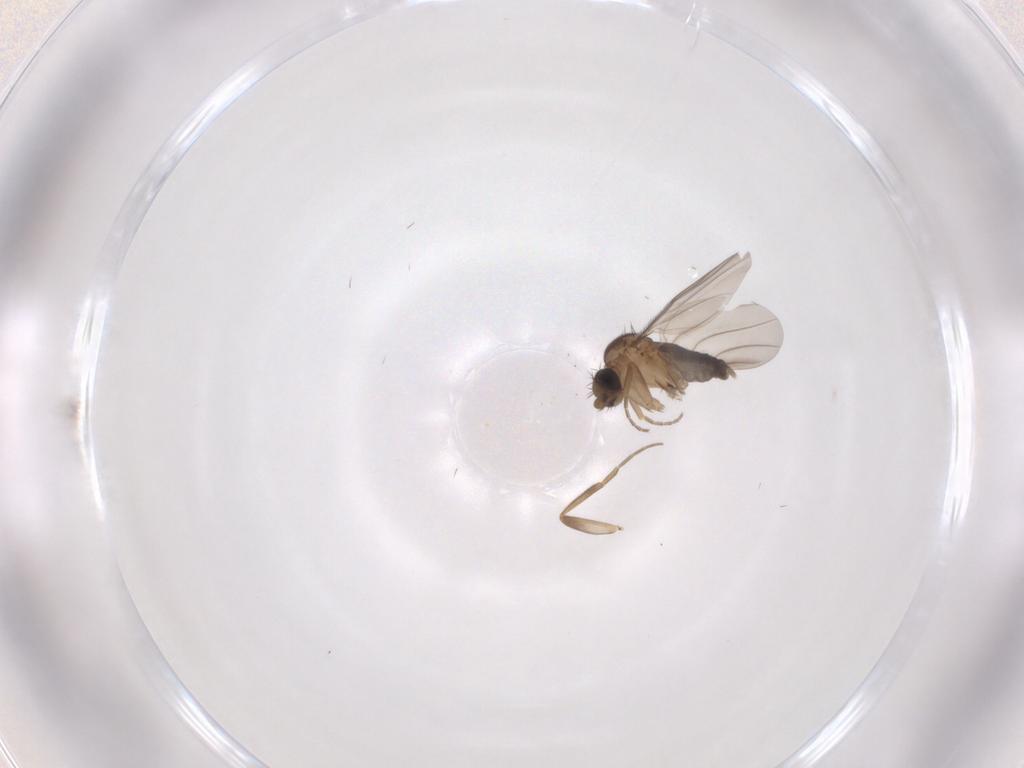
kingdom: Animalia
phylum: Arthropoda
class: Insecta
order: Diptera
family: Phoridae
